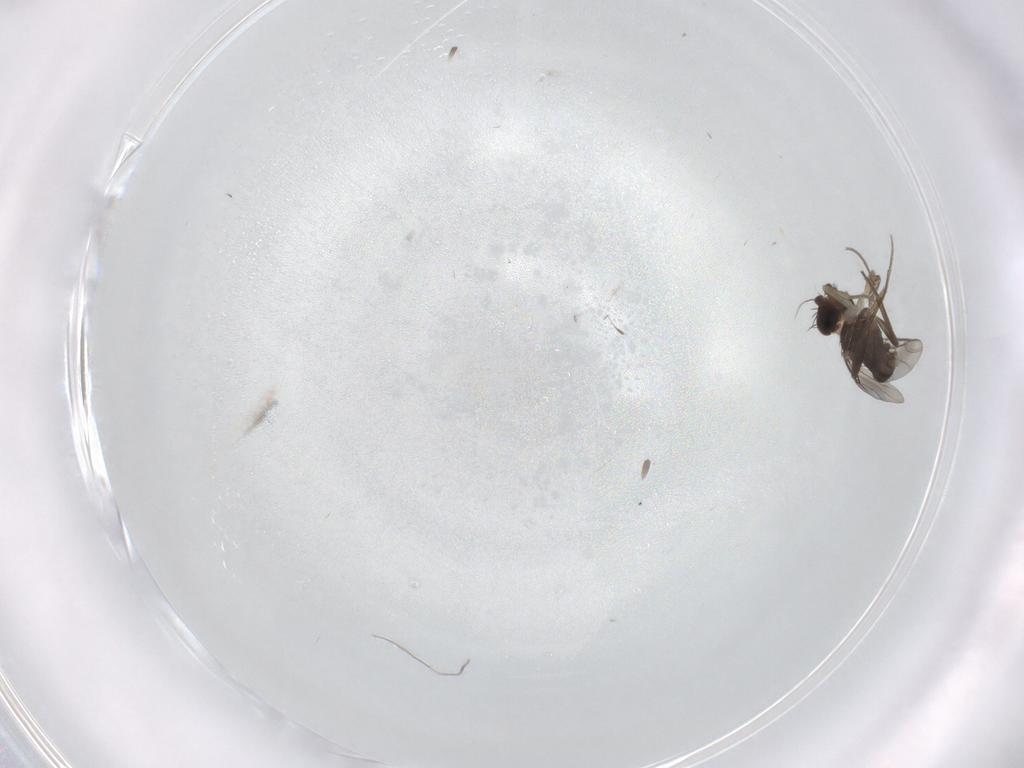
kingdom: Animalia
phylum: Arthropoda
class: Insecta
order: Diptera
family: Phoridae
